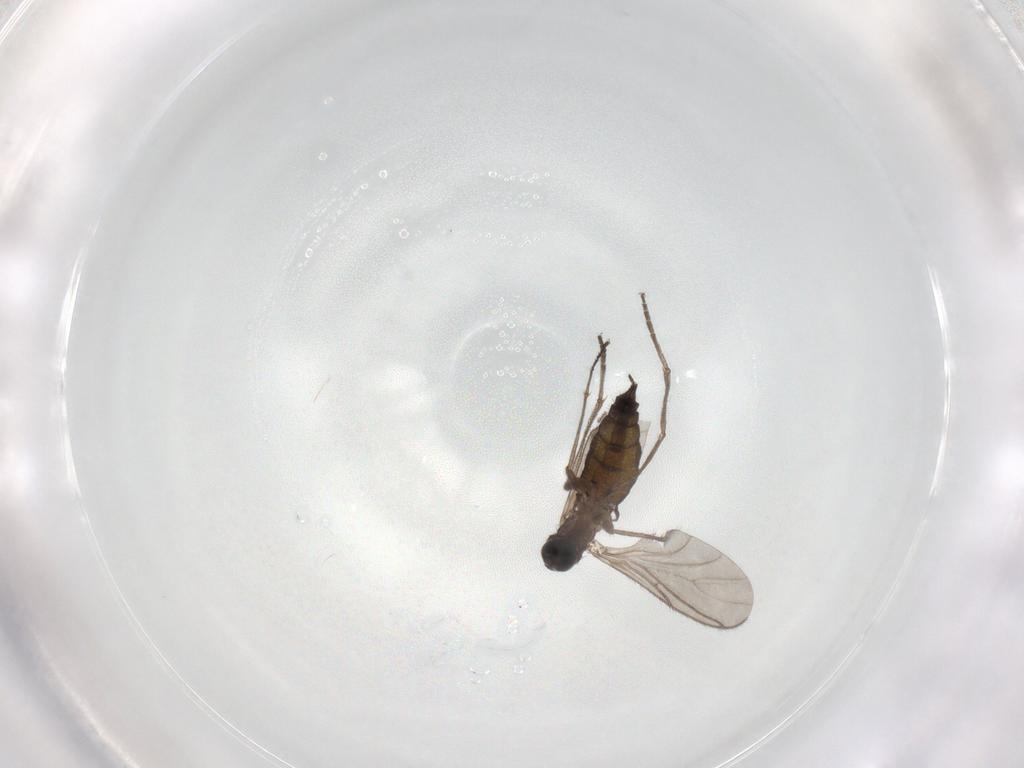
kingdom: Animalia
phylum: Arthropoda
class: Insecta
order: Diptera
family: Sciaridae
